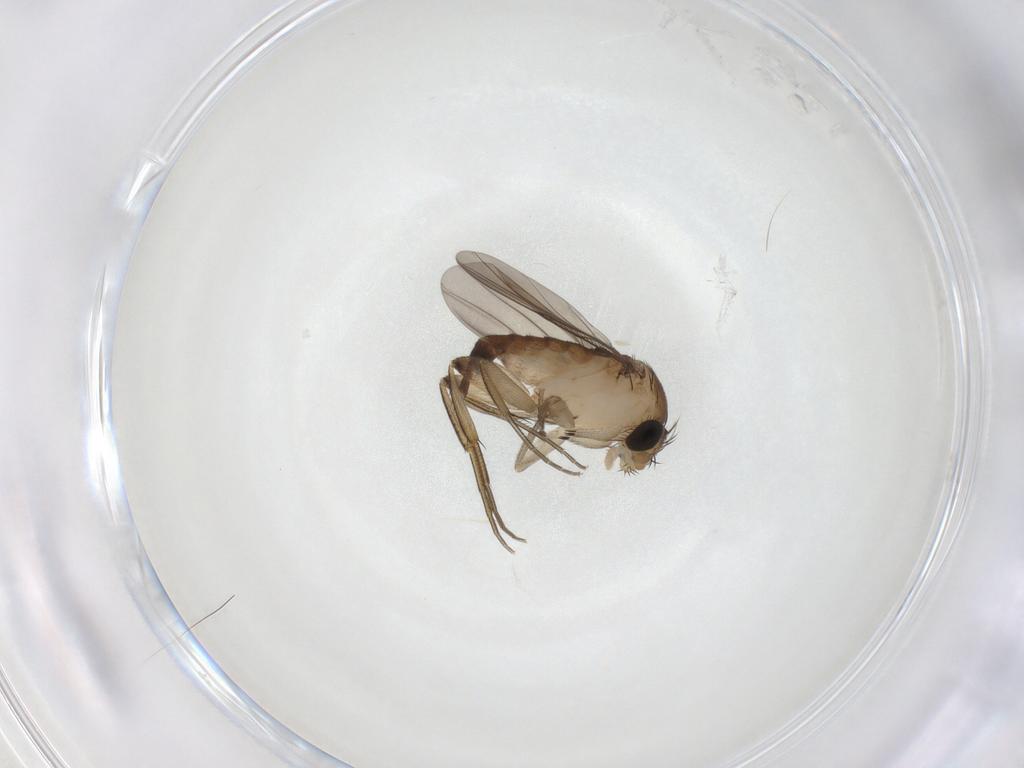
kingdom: Animalia
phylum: Arthropoda
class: Insecta
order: Diptera
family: Phoridae
